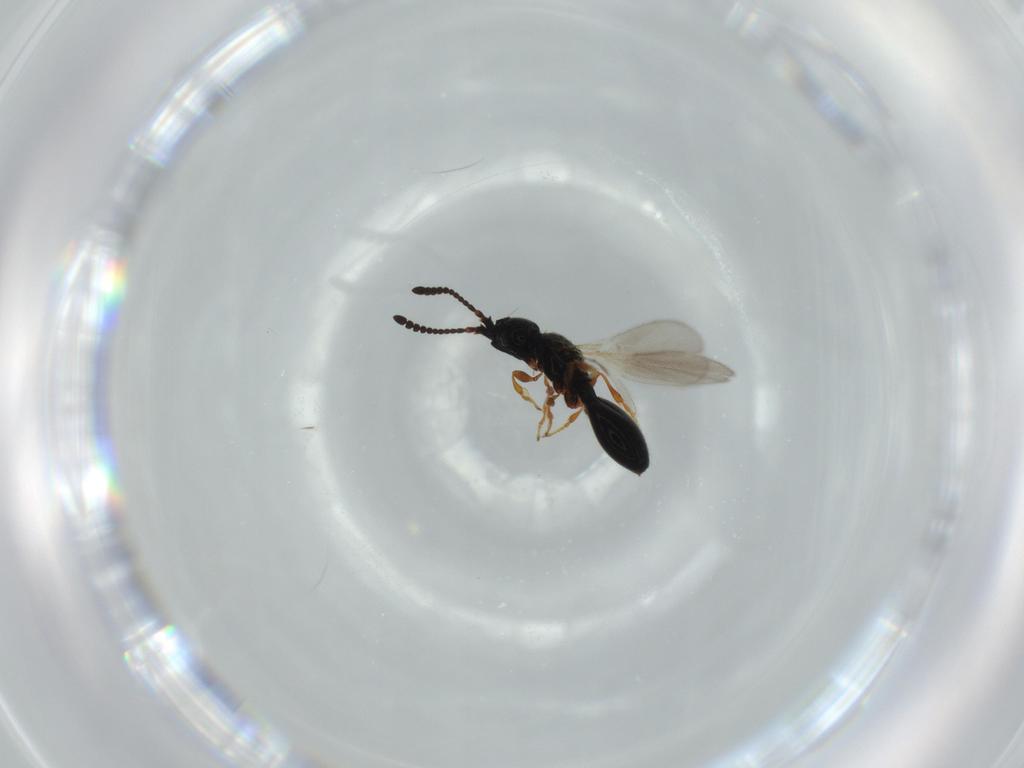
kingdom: Animalia
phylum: Arthropoda
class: Insecta
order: Hymenoptera
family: Diapriidae
